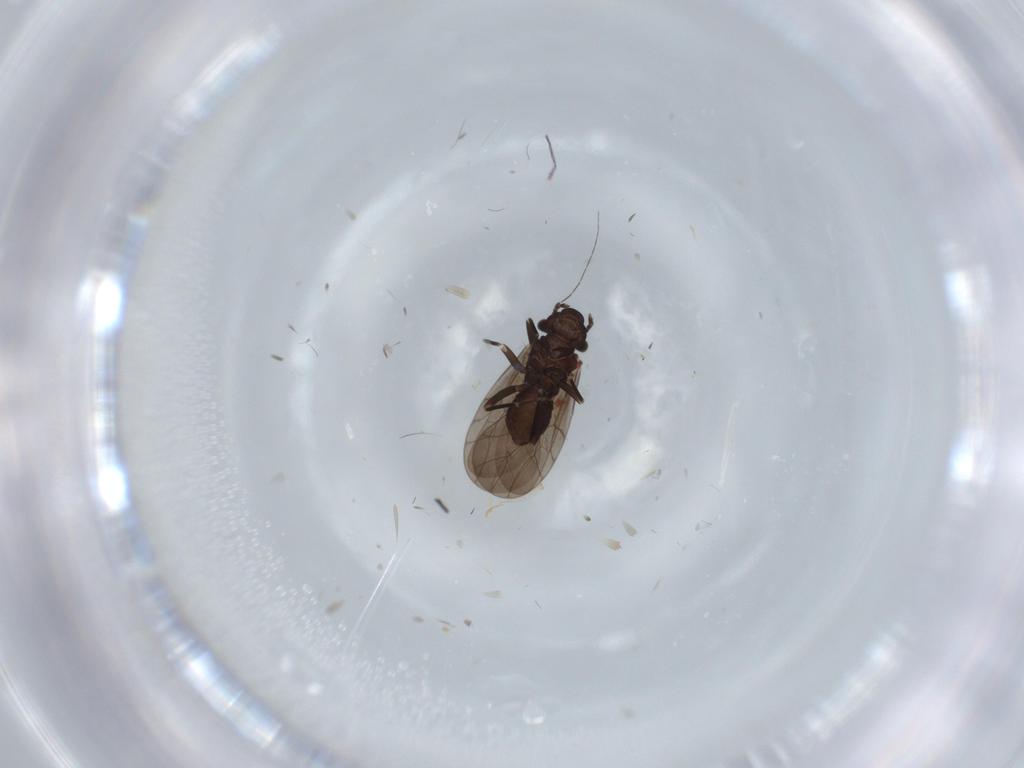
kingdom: Animalia
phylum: Arthropoda
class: Insecta
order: Psocodea
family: Lepidopsocidae
